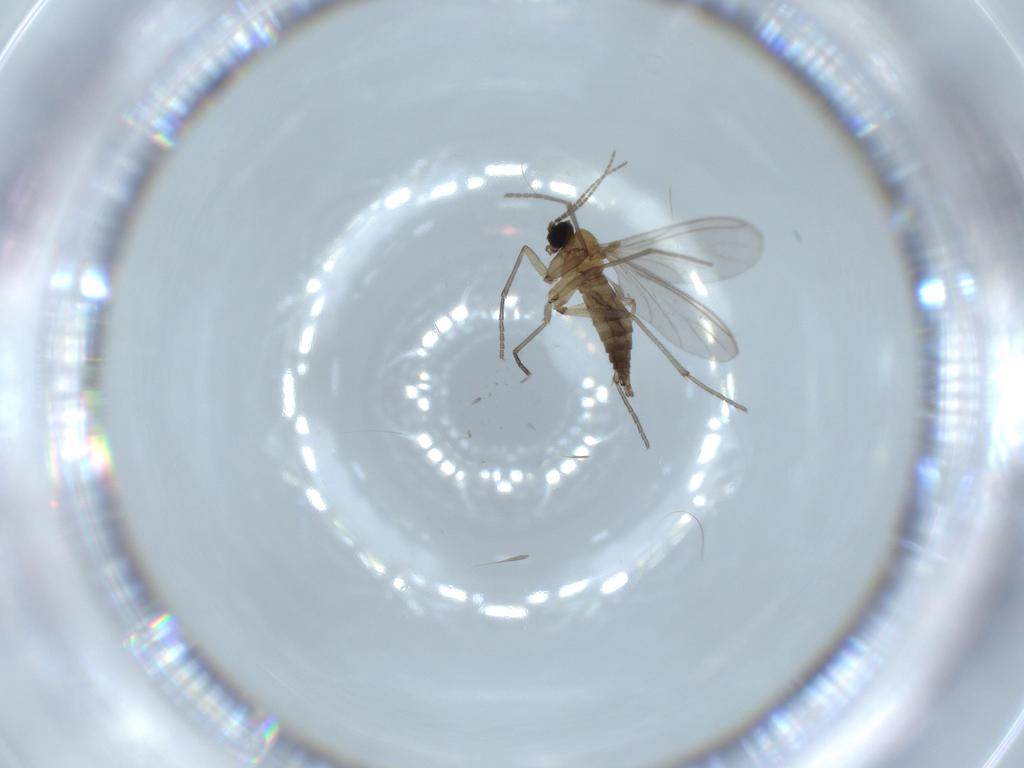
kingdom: Animalia
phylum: Arthropoda
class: Insecta
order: Diptera
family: Sciaridae
